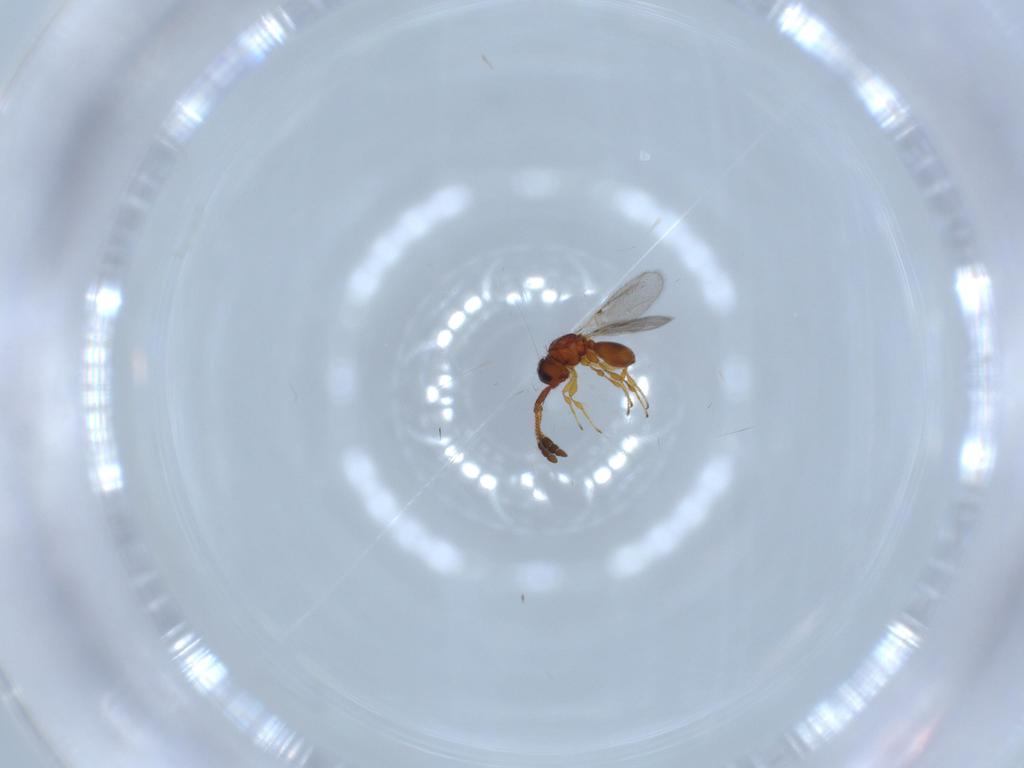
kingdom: Animalia
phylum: Arthropoda
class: Insecta
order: Hymenoptera
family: Diapriidae
